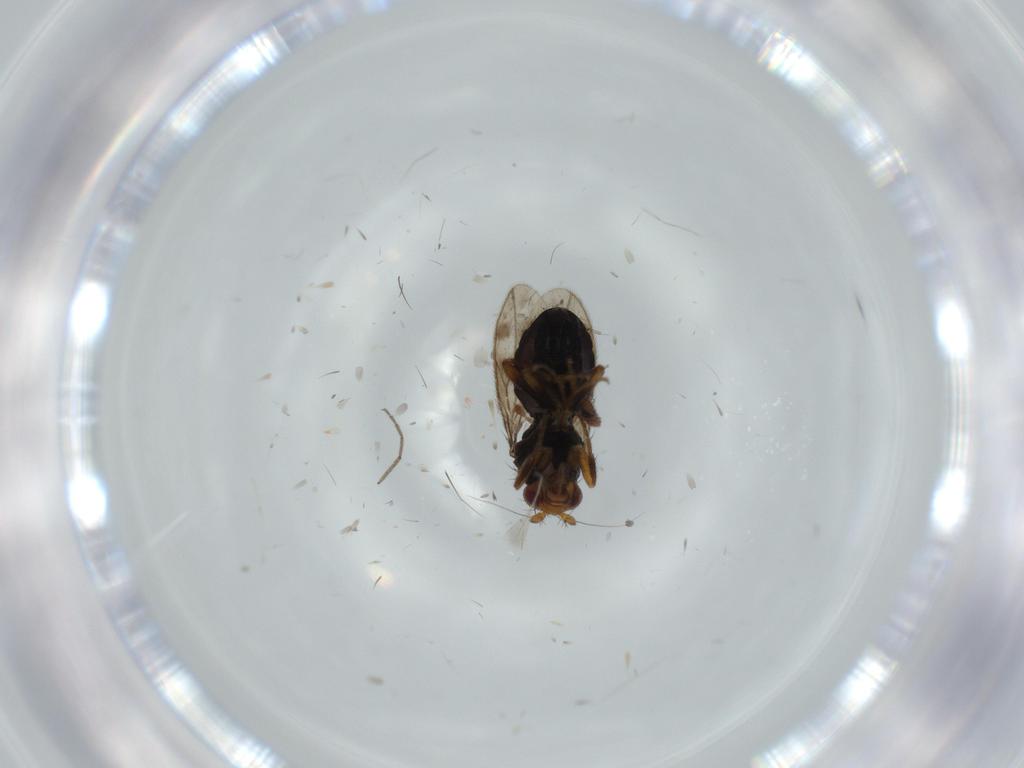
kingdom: Animalia
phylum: Arthropoda
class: Insecta
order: Diptera
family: Sphaeroceridae
